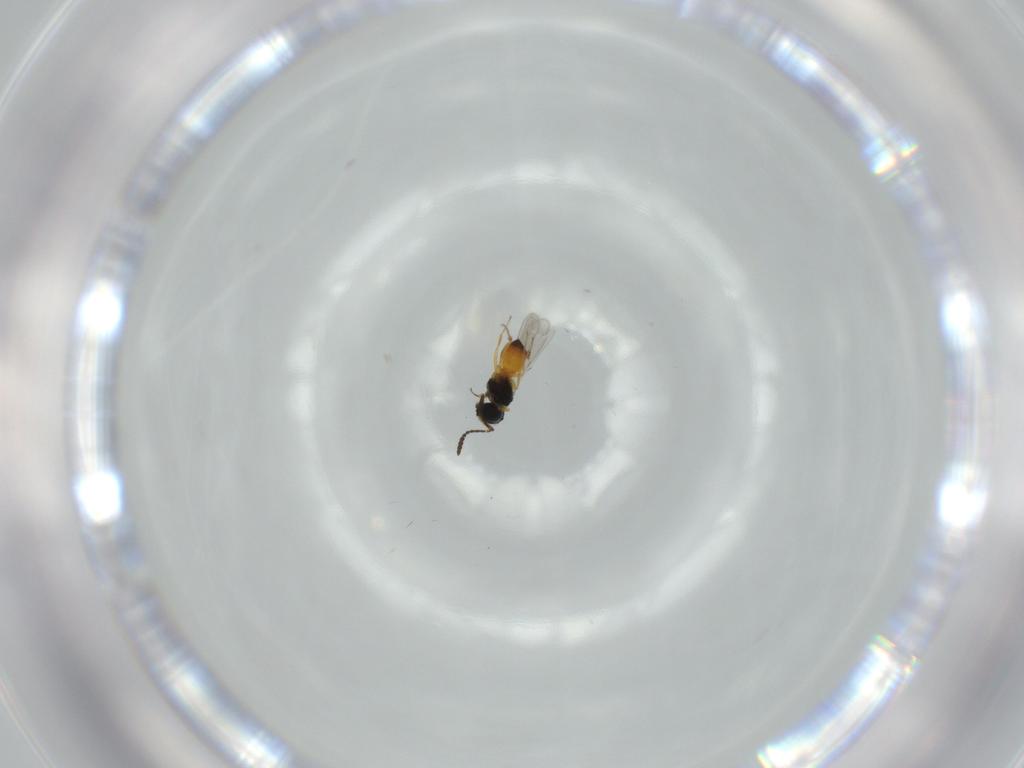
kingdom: Animalia
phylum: Arthropoda
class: Insecta
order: Hymenoptera
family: Scelionidae
